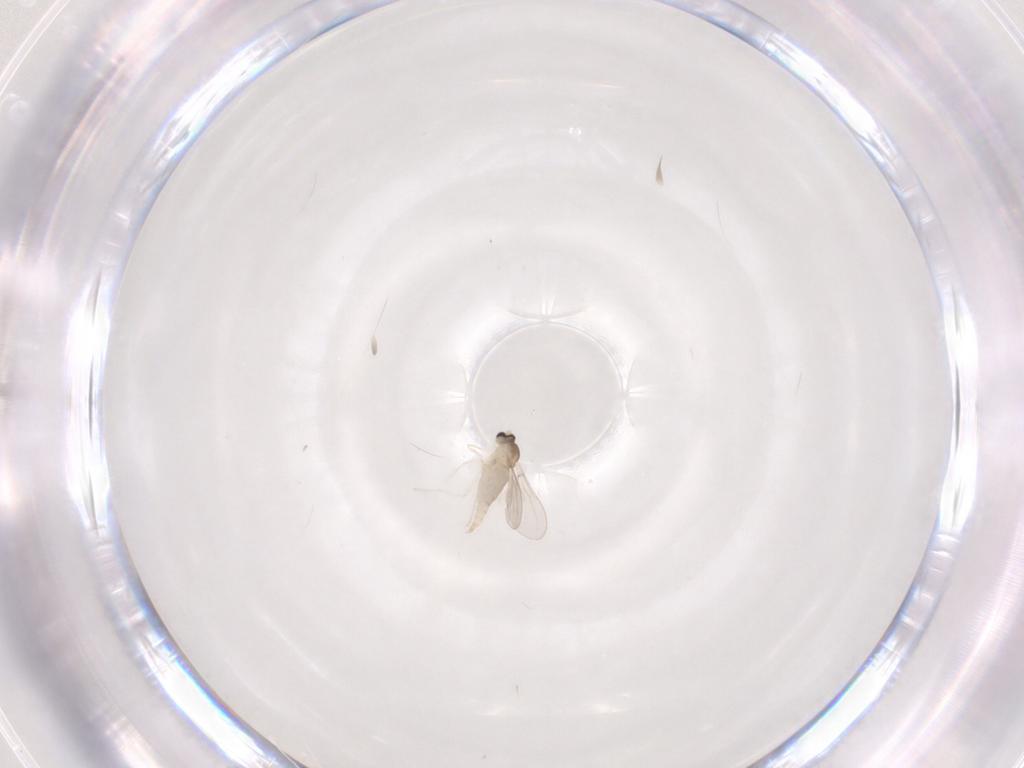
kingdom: Animalia
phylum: Arthropoda
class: Insecta
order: Diptera
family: Cecidomyiidae
